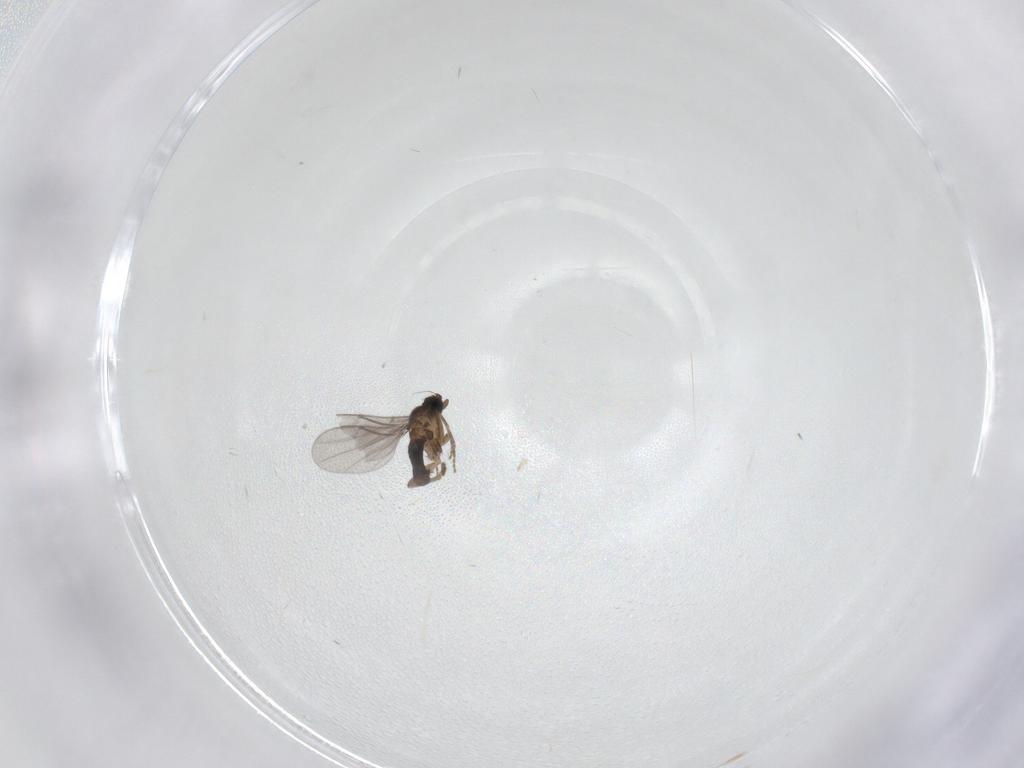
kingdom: Animalia
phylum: Arthropoda
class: Insecta
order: Diptera
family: Phoridae
